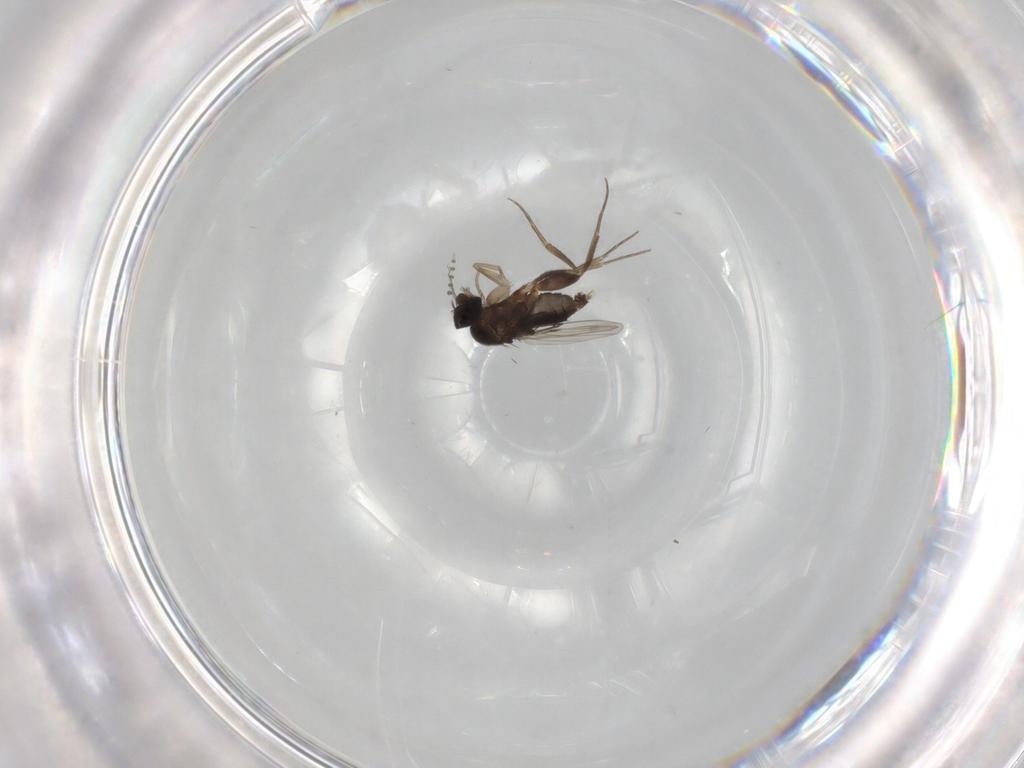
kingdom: Animalia
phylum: Arthropoda
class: Insecta
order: Diptera
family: Phoridae
